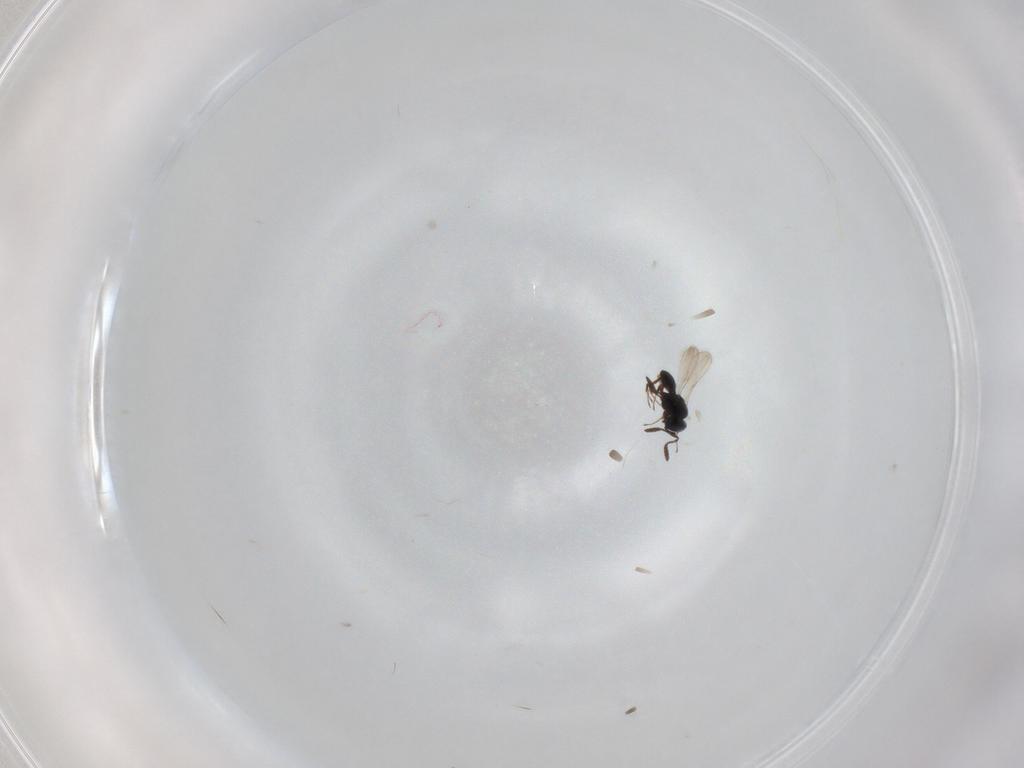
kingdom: Animalia
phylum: Arthropoda
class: Insecta
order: Hymenoptera
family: Scelionidae
